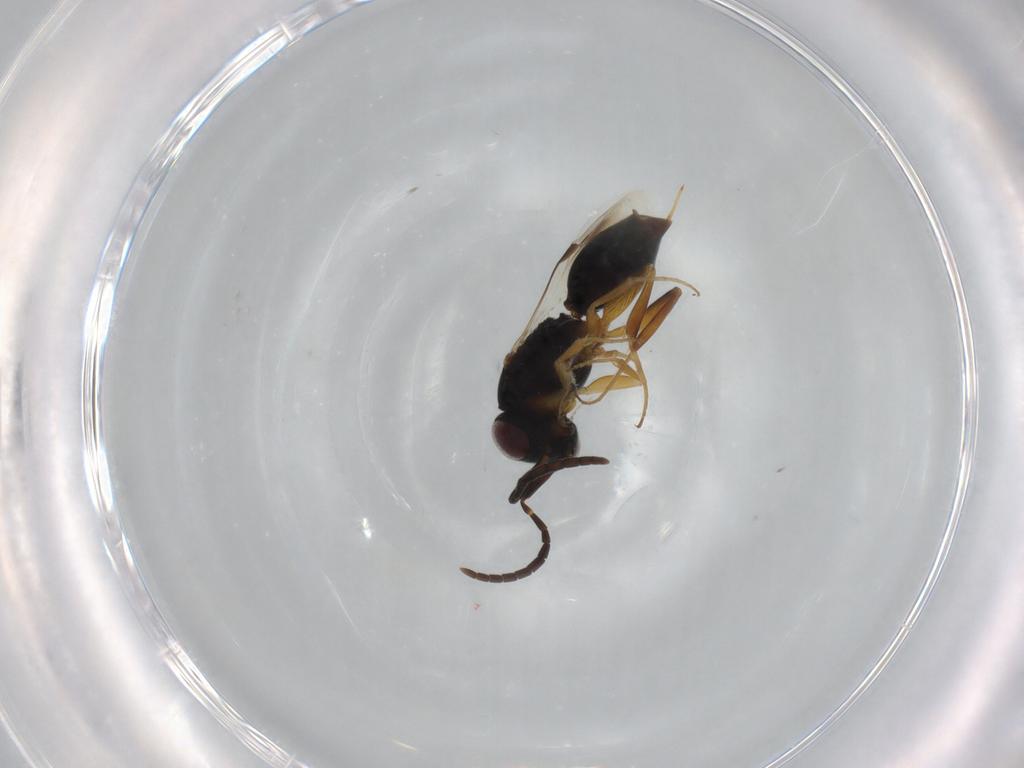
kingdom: Animalia
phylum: Arthropoda
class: Insecta
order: Hymenoptera
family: Megaspilidae
